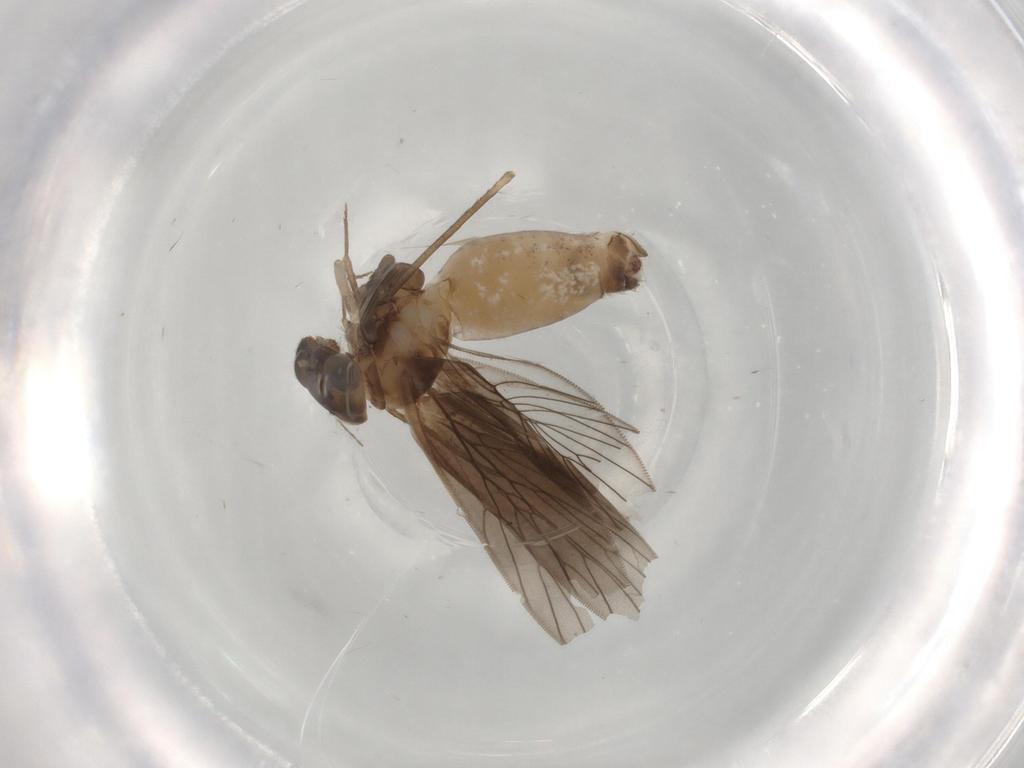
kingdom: Animalia
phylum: Arthropoda
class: Insecta
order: Psocodea
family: Lepidopsocidae
